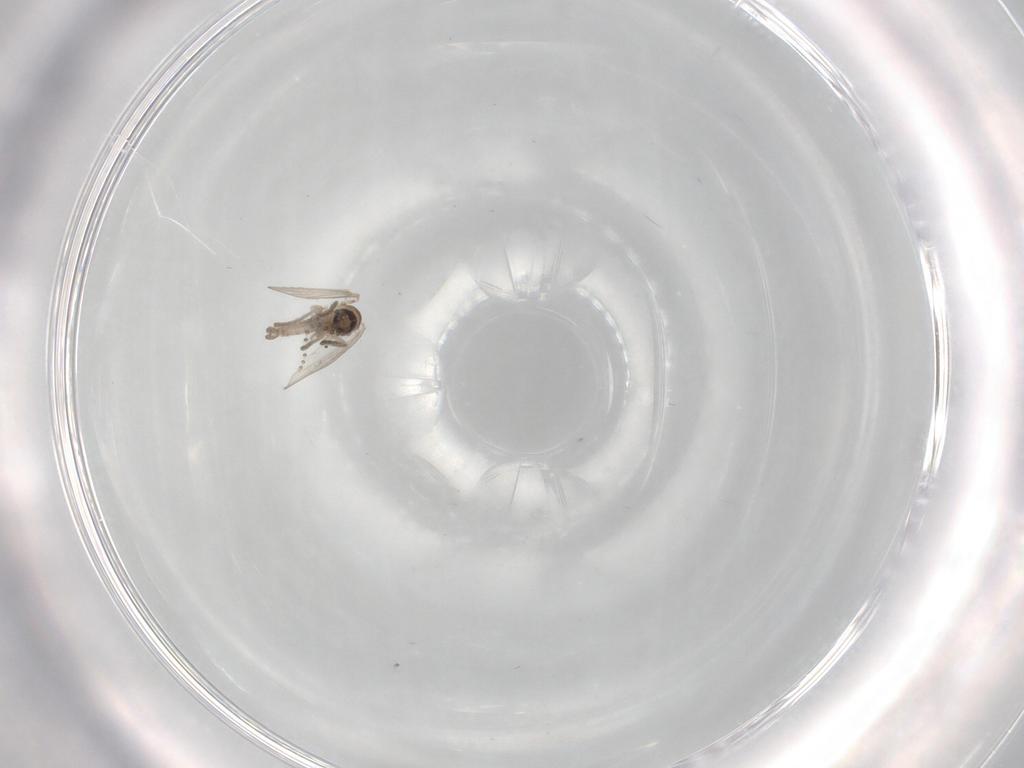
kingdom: Animalia
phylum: Arthropoda
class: Insecta
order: Diptera
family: Psychodidae
